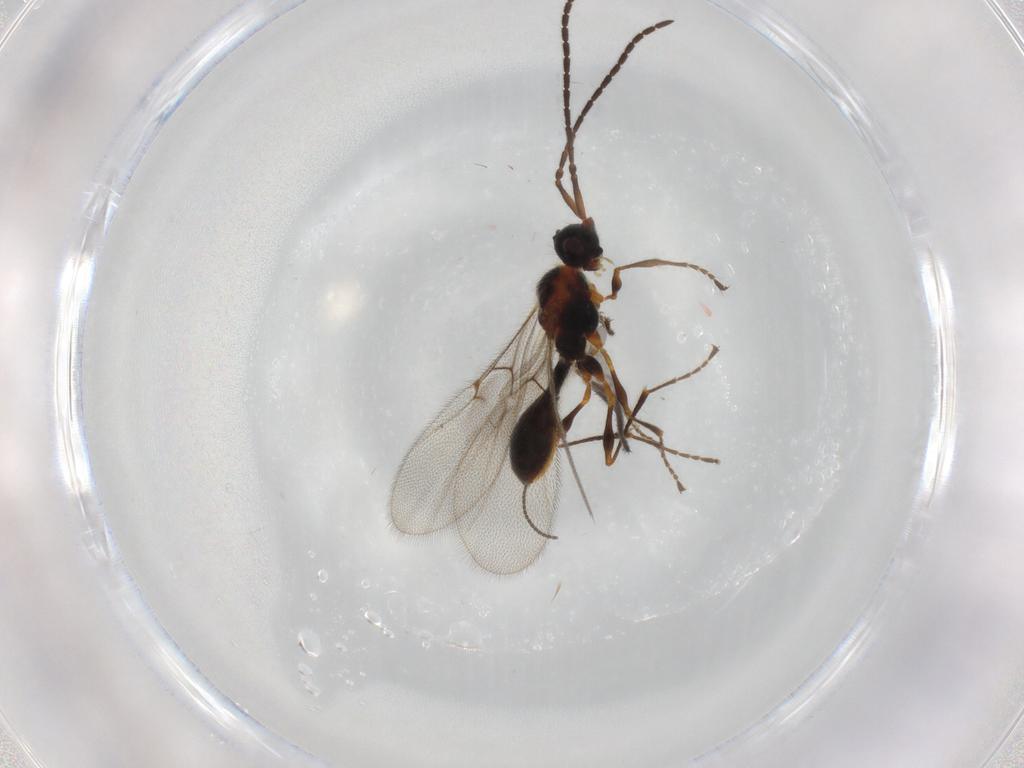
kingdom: Animalia
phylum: Arthropoda
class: Insecta
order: Hymenoptera
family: Diapriidae
